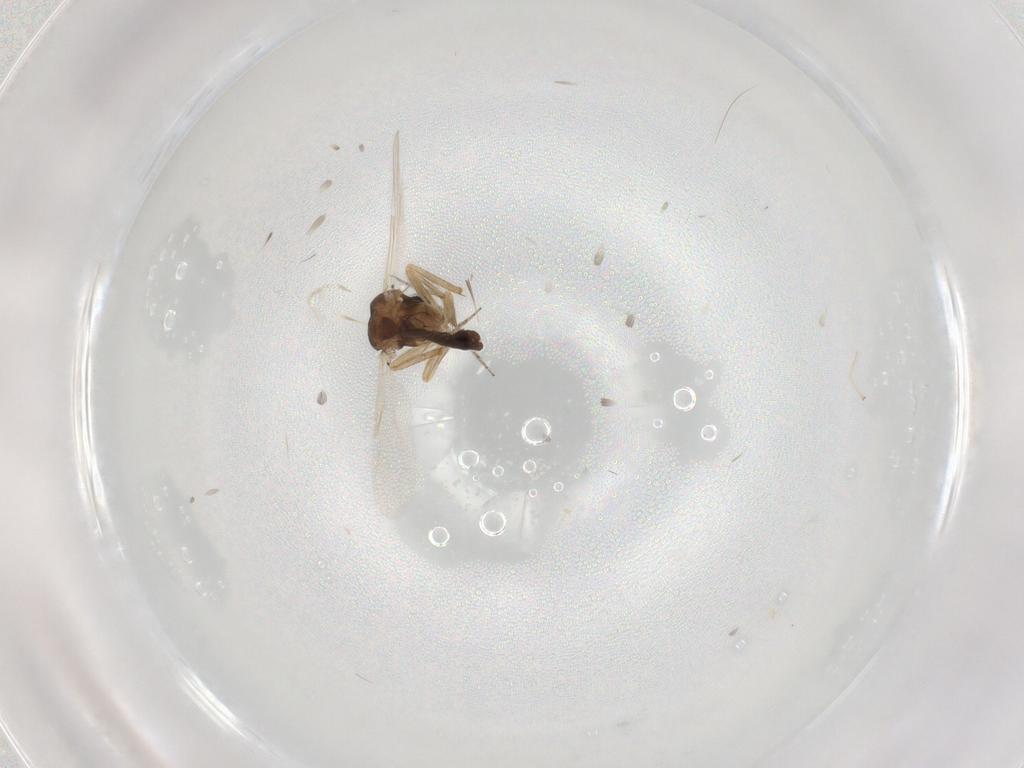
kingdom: Animalia
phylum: Arthropoda
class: Insecta
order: Diptera
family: Ceratopogonidae
